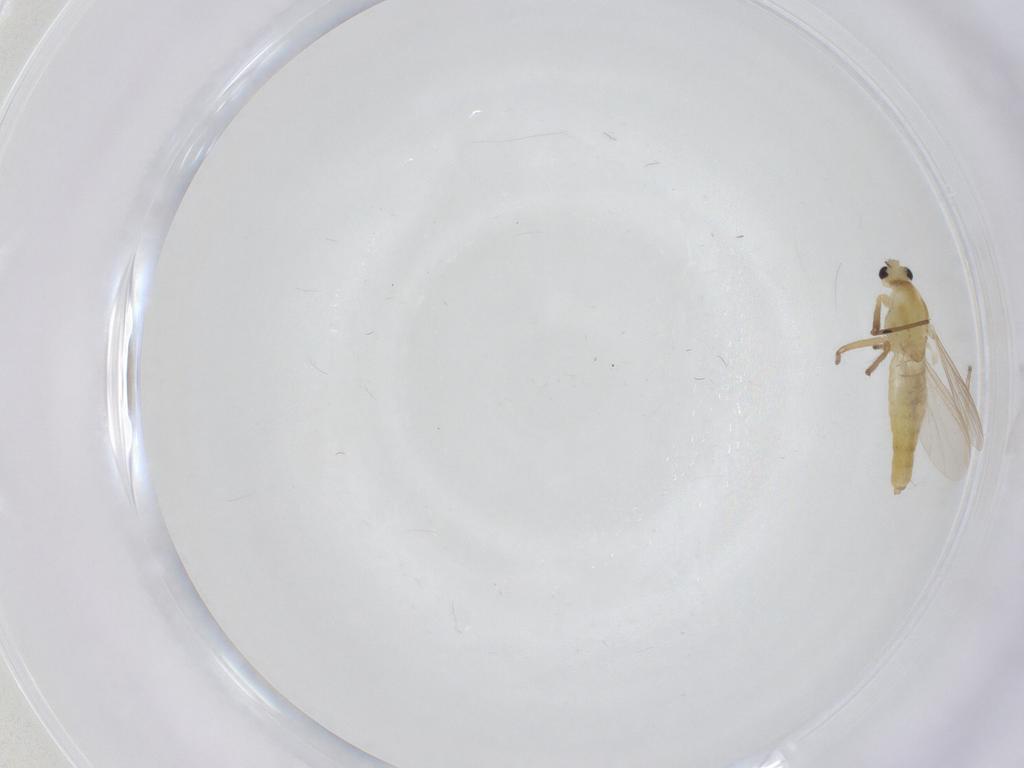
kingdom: Animalia
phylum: Arthropoda
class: Insecta
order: Diptera
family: Chironomidae
